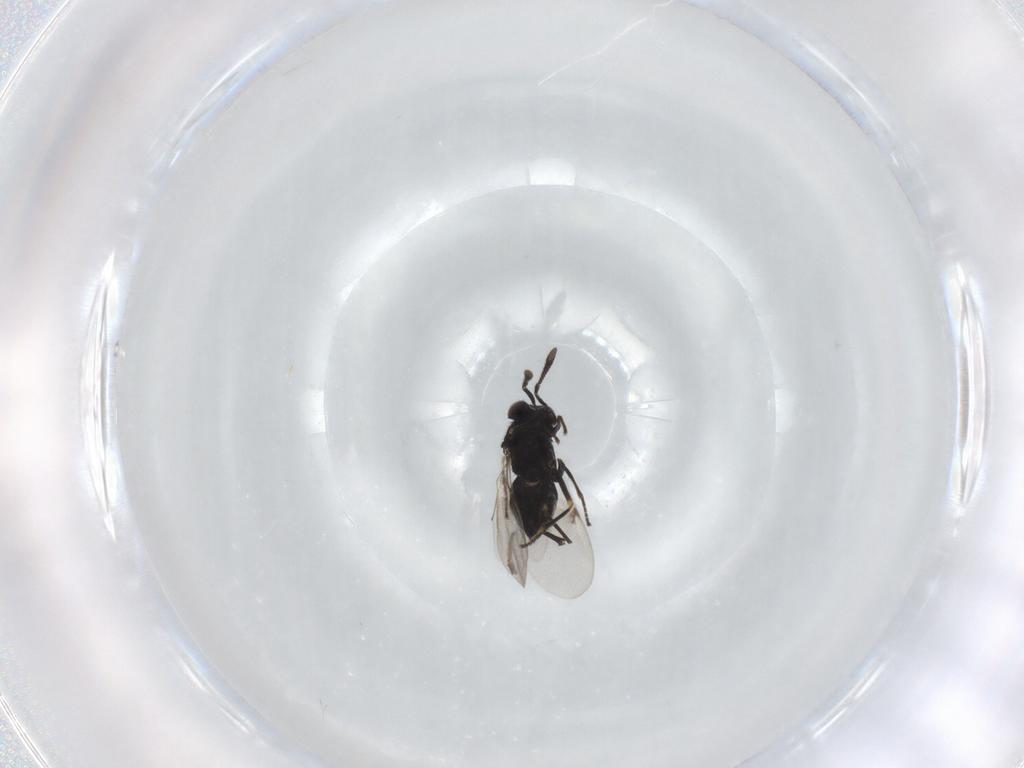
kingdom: Animalia
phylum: Arthropoda
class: Insecta
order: Hymenoptera
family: Encyrtidae
